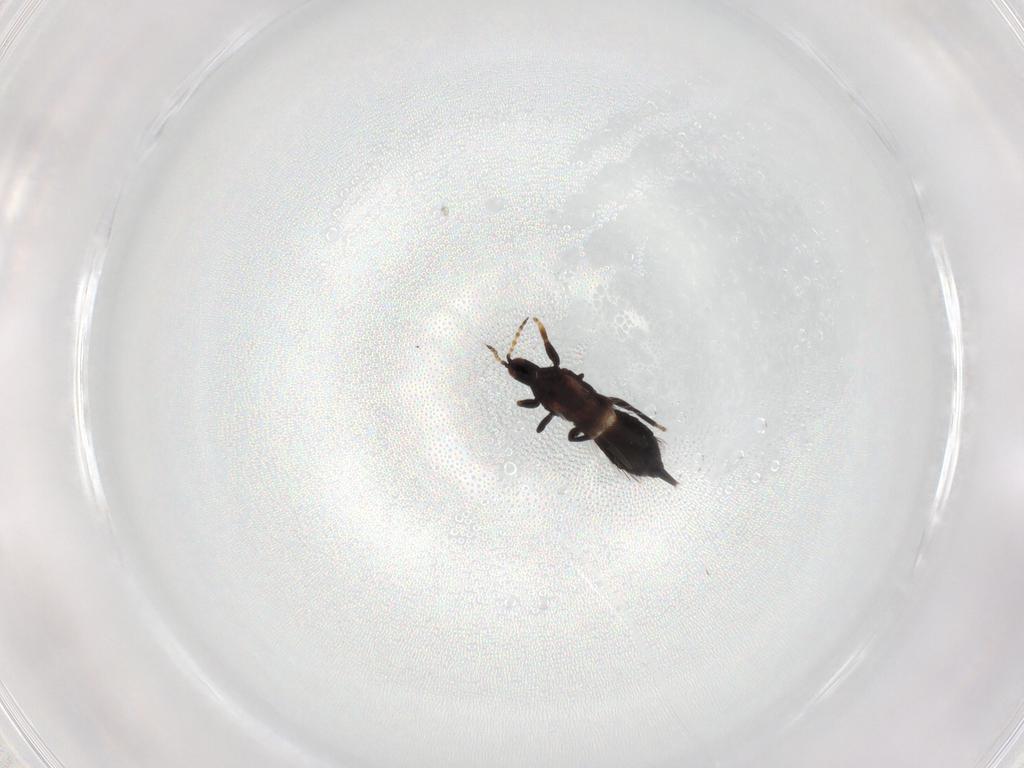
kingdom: Animalia
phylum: Arthropoda
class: Insecta
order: Thysanoptera
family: Phlaeothripidae
